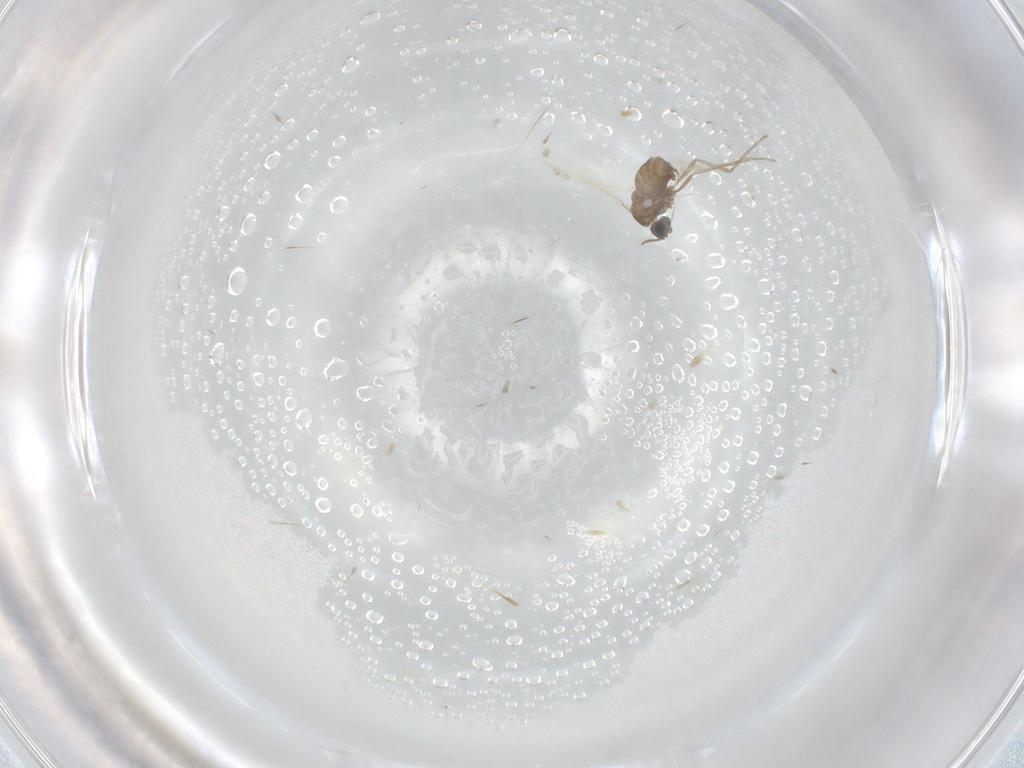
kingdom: Animalia
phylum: Arthropoda
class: Insecta
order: Diptera
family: Cecidomyiidae
